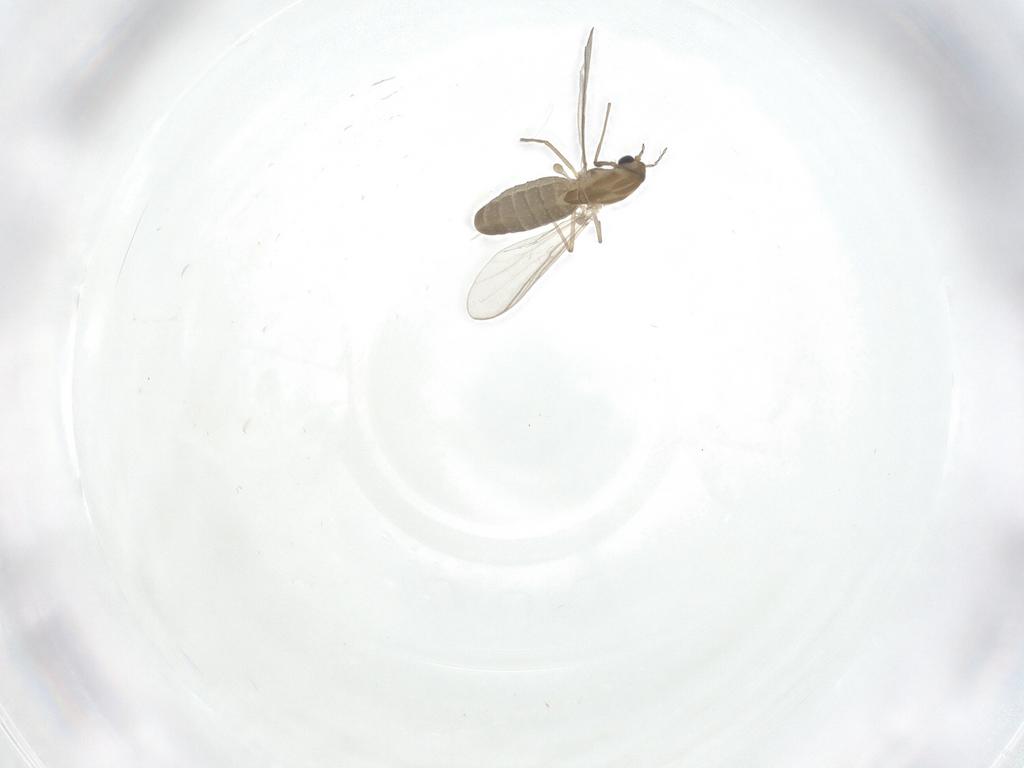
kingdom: Animalia
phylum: Arthropoda
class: Insecta
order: Diptera
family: Chironomidae
